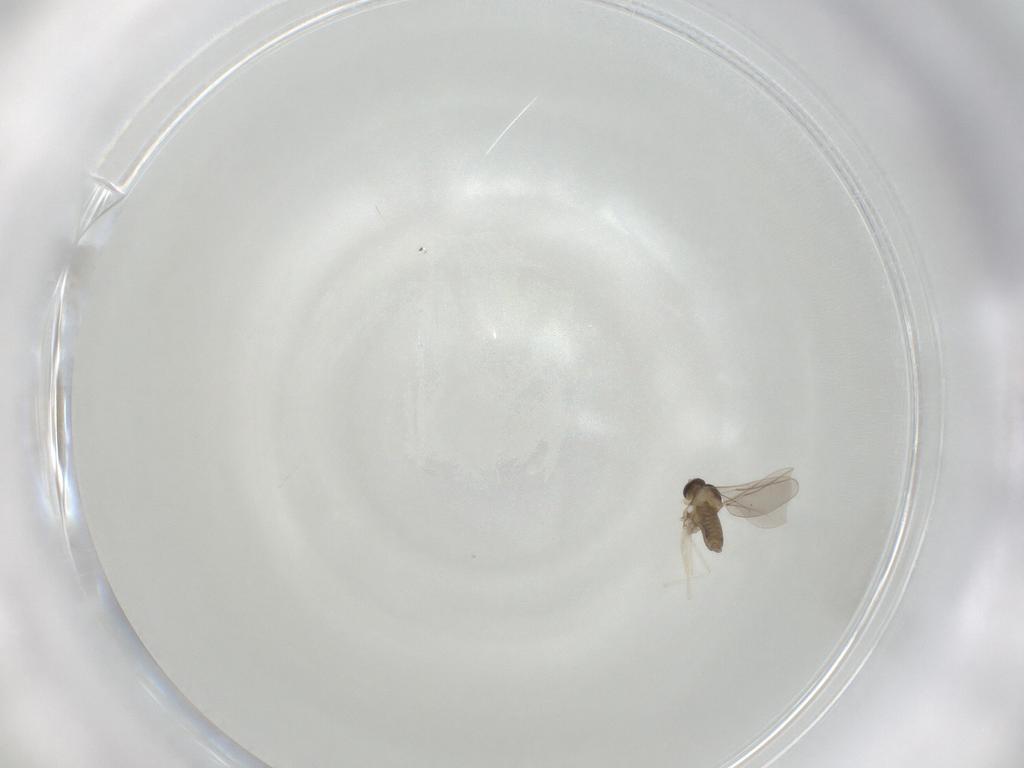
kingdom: Animalia
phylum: Arthropoda
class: Insecta
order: Diptera
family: Cecidomyiidae
